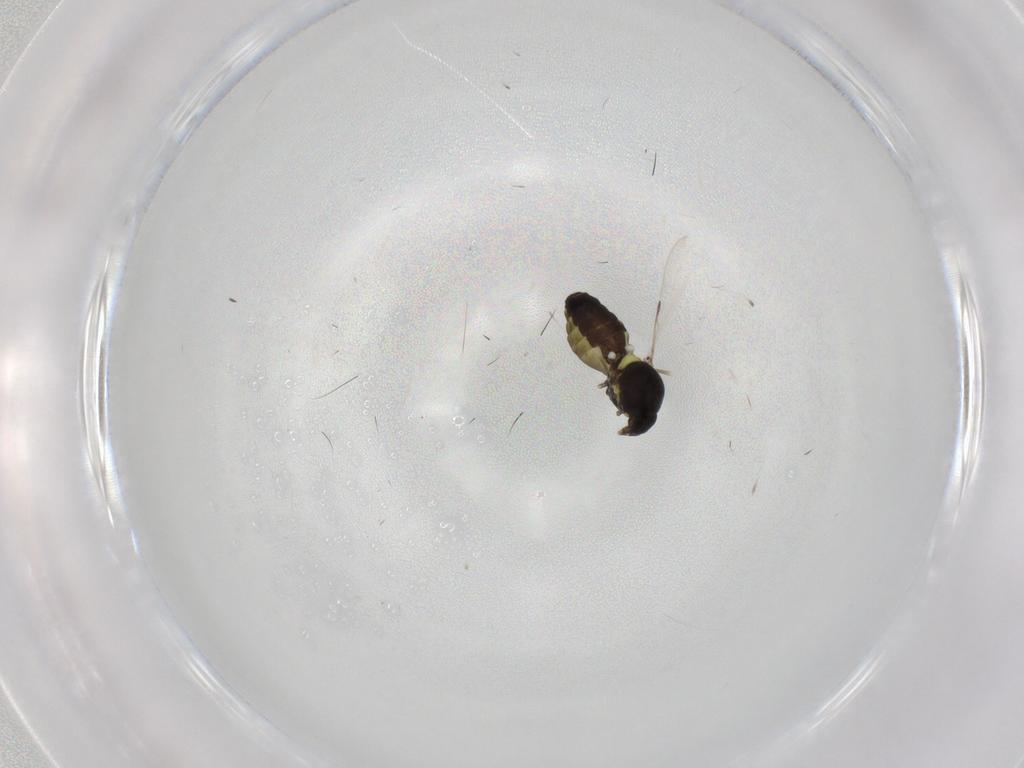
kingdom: Animalia
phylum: Arthropoda
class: Insecta
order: Diptera
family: Ceratopogonidae
